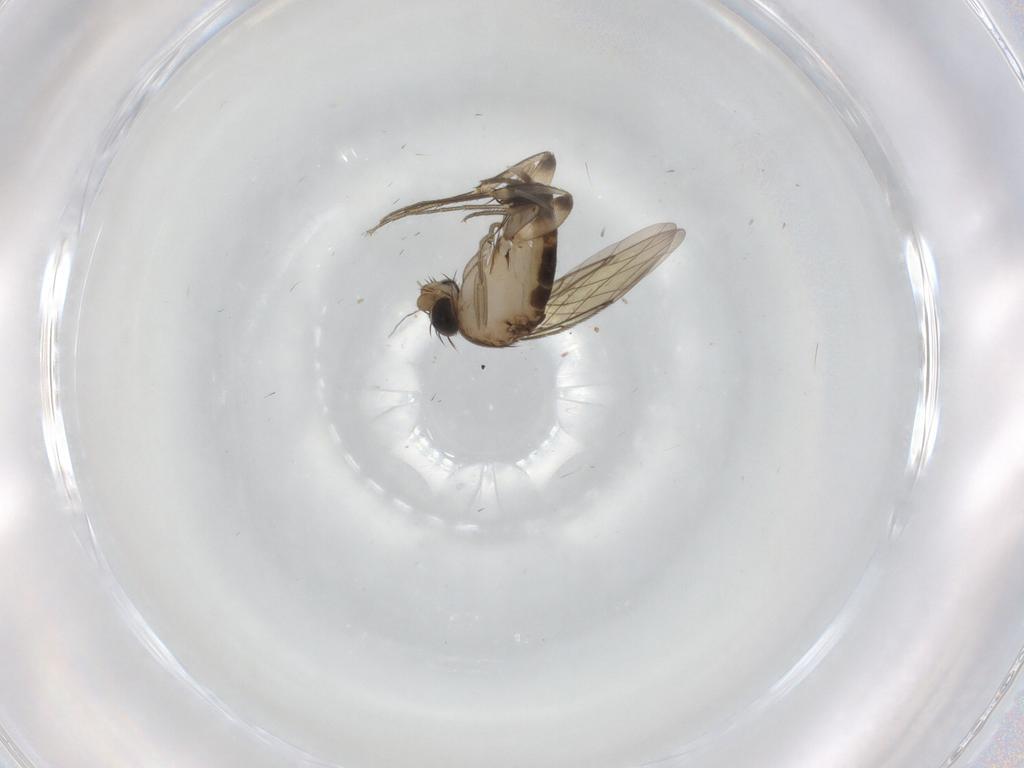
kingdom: Animalia
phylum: Arthropoda
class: Insecta
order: Diptera
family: Phoridae
